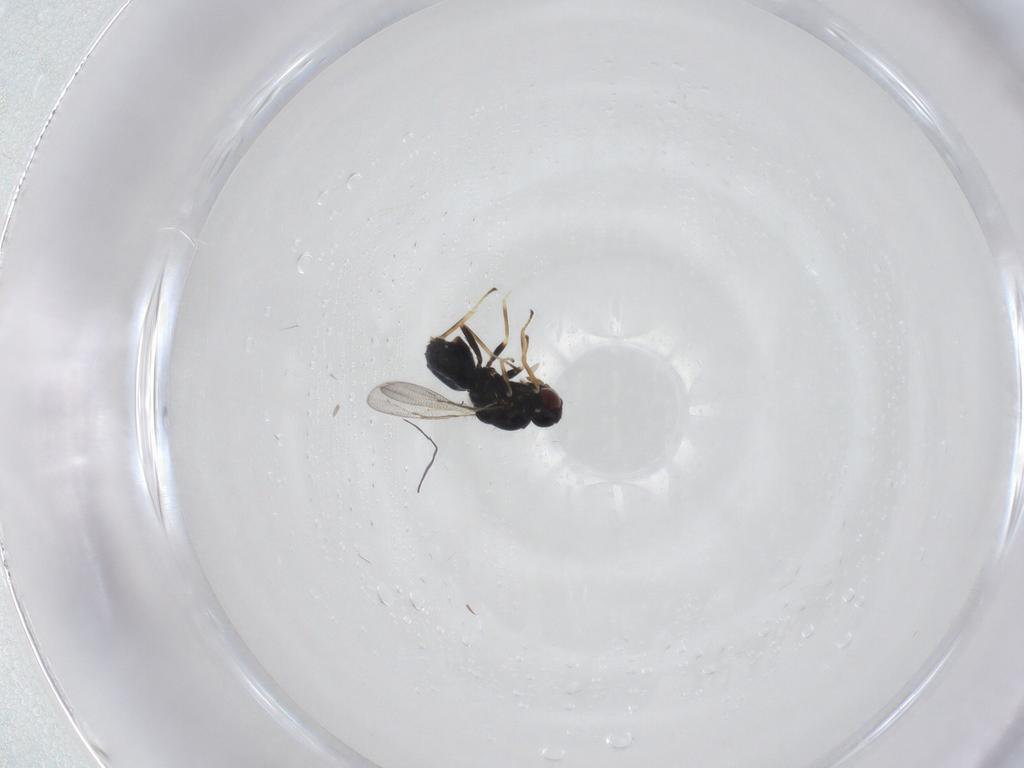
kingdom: Animalia
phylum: Arthropoda
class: Insecta
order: Hymenoptera
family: Eulophidae
